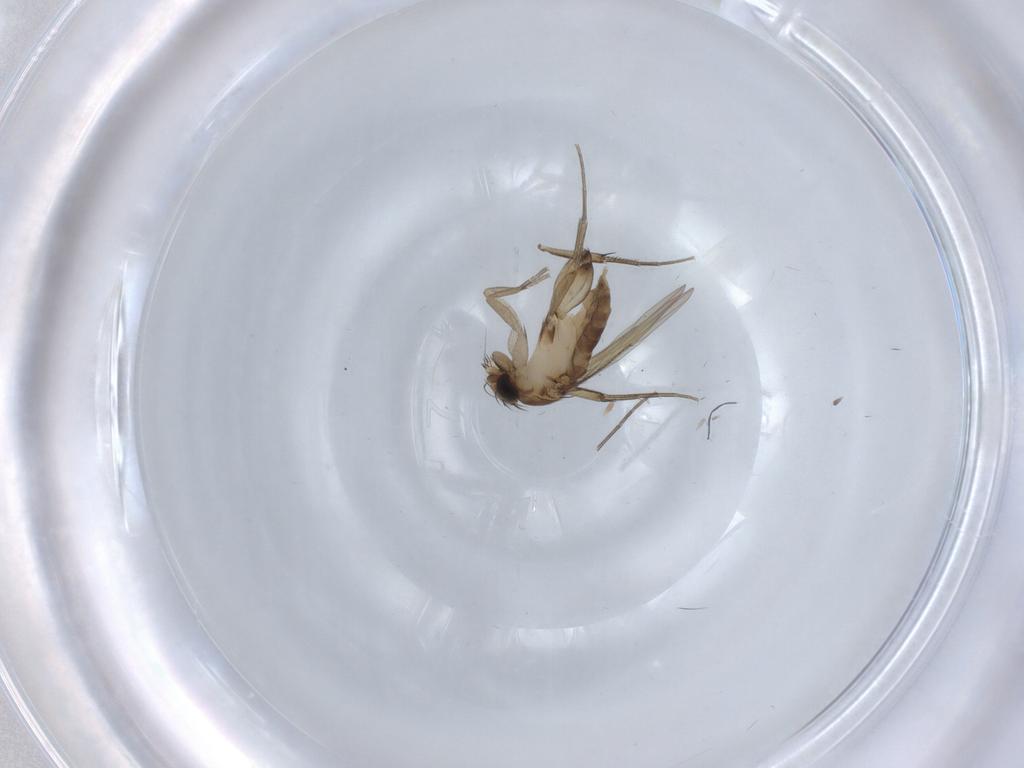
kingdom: Animalia
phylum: Arthropoda
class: Insecta
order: Diptera
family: Phoridae
